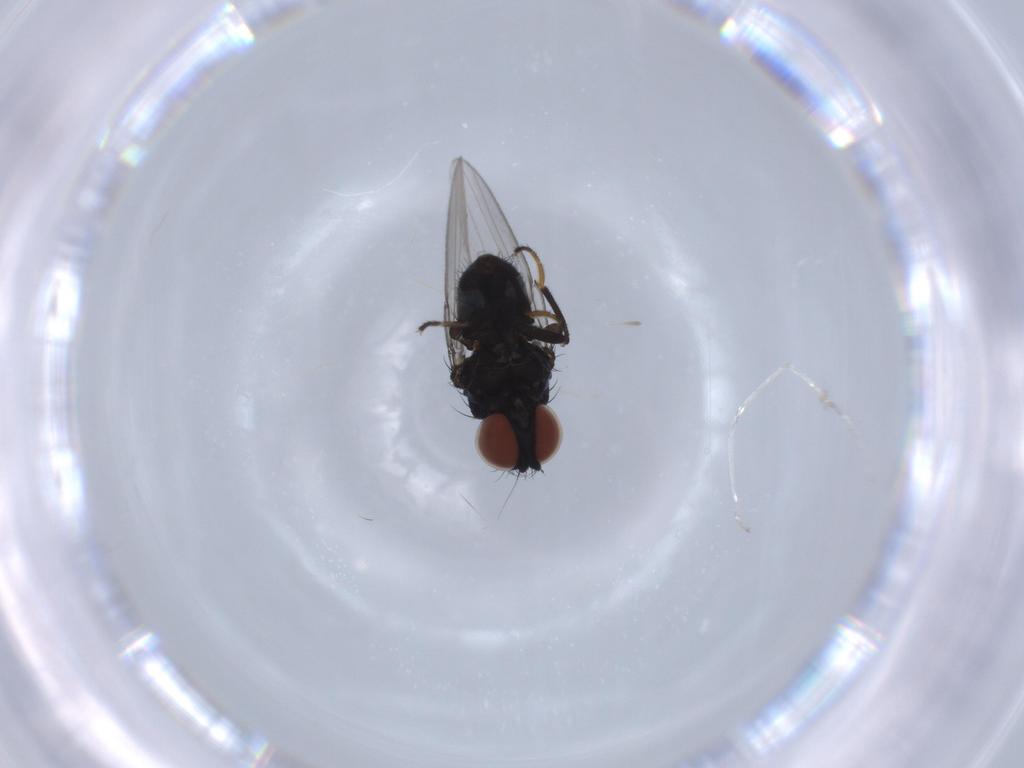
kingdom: Animalia
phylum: Arthropoda
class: Insecta
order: Diptera
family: Milichiidae
